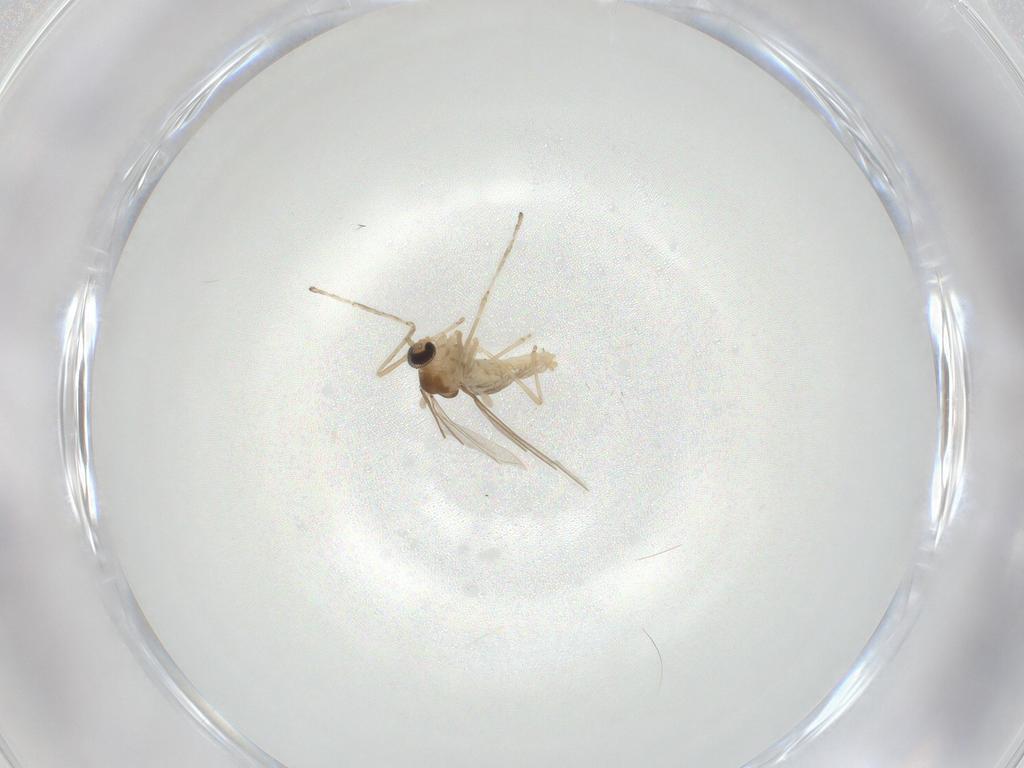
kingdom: Animalia
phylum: Arthropoda
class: Insecta
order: Diptera
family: Cecidomyiidae
